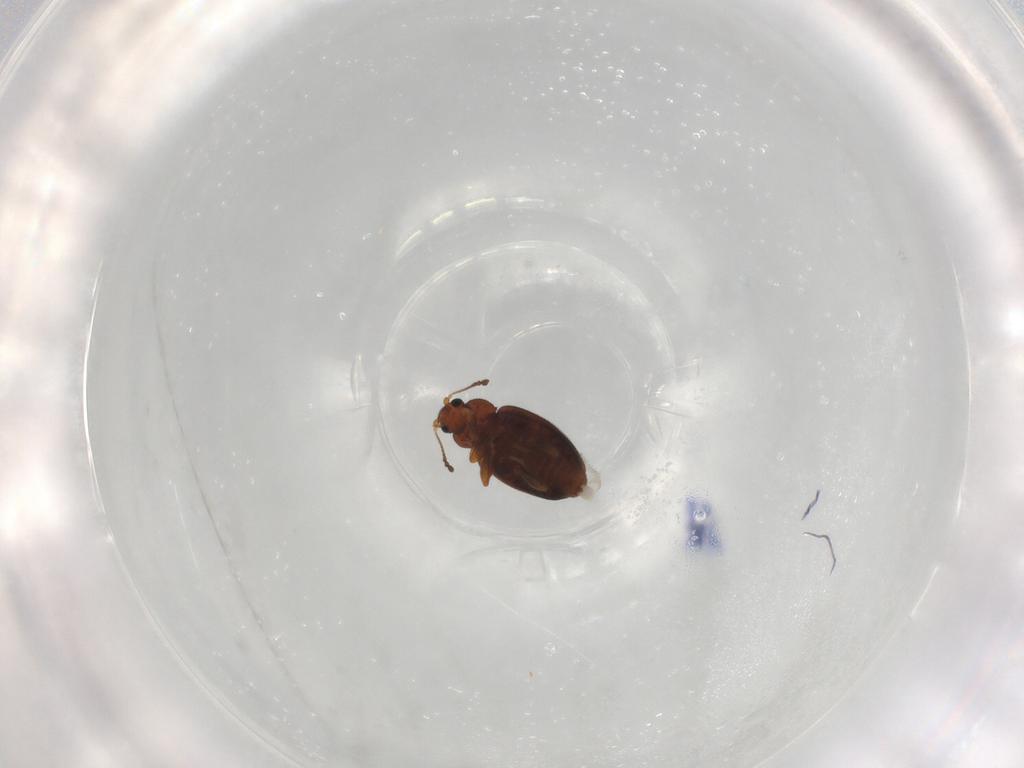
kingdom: Animalia
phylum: Arthropoda
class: Insecta
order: Coleoptera
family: Latridiidae
